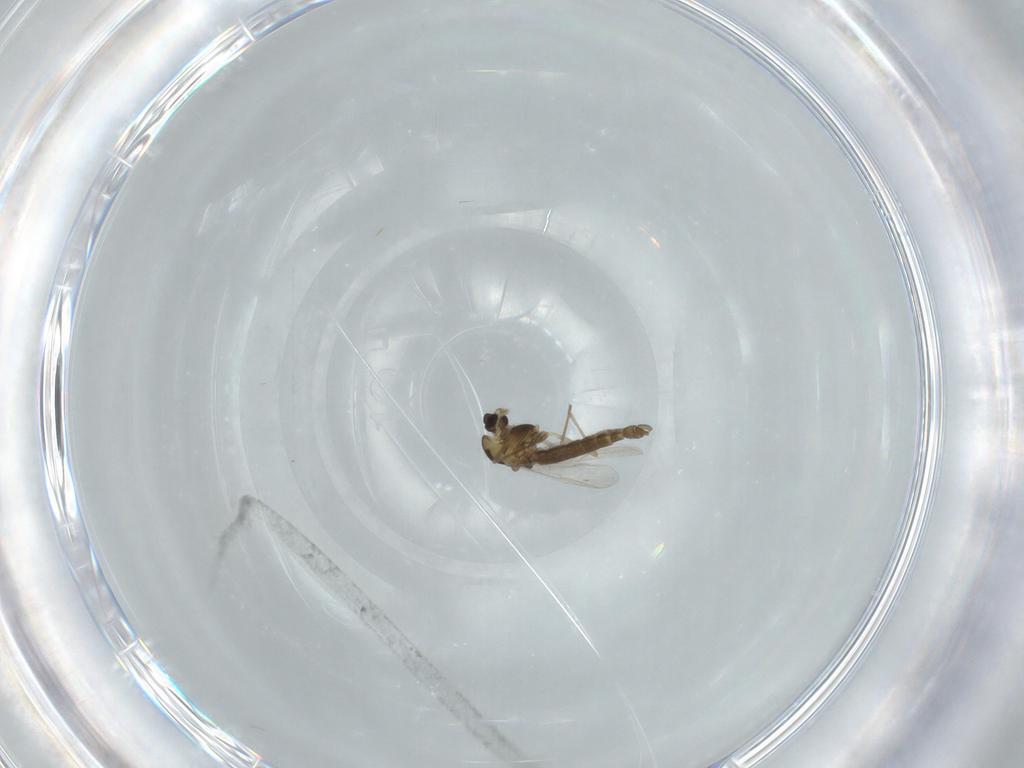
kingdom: Animalia
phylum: Arthropoda
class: Insecta
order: Diptera
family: Chironomidae
